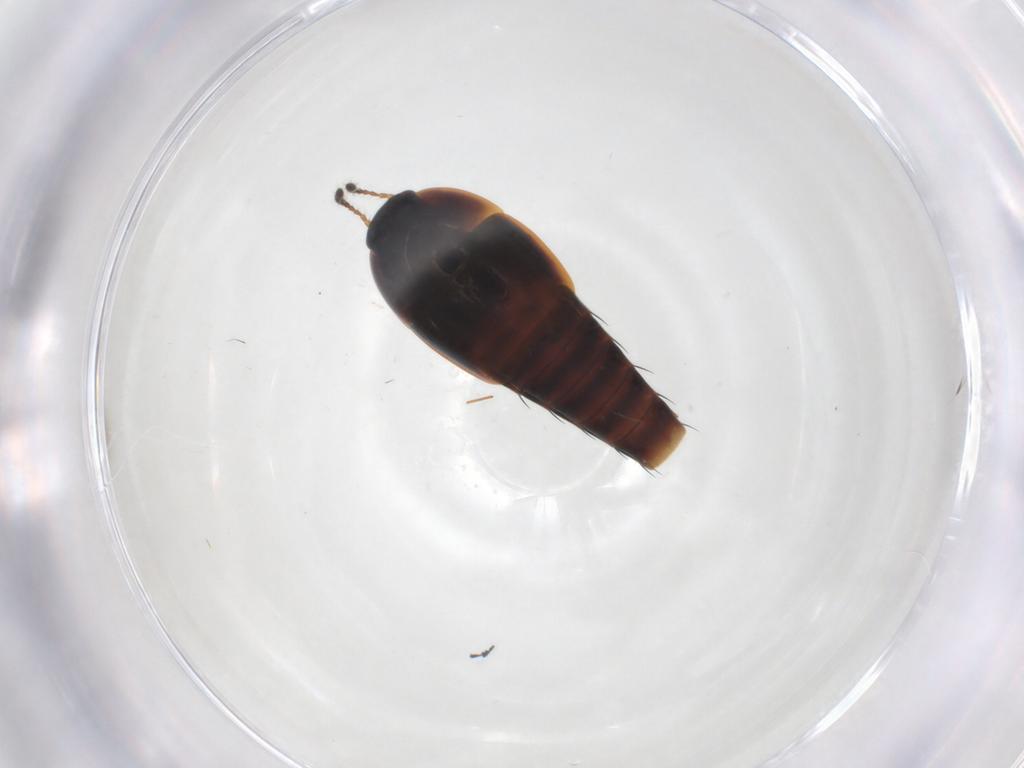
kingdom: Animalia
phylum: Arthropoda
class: Insecta
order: Coleoptera
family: Staphylinidae
